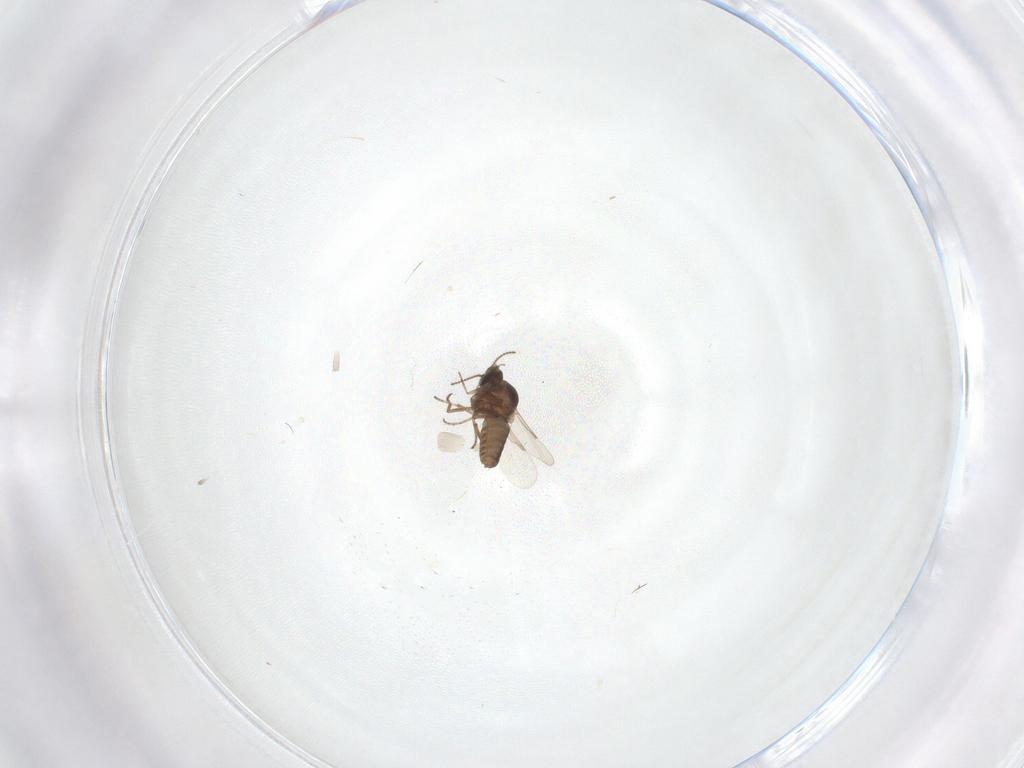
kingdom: Animalia
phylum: Arthropoda
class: Insecta
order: Diptera
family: Ceratopogonidae
